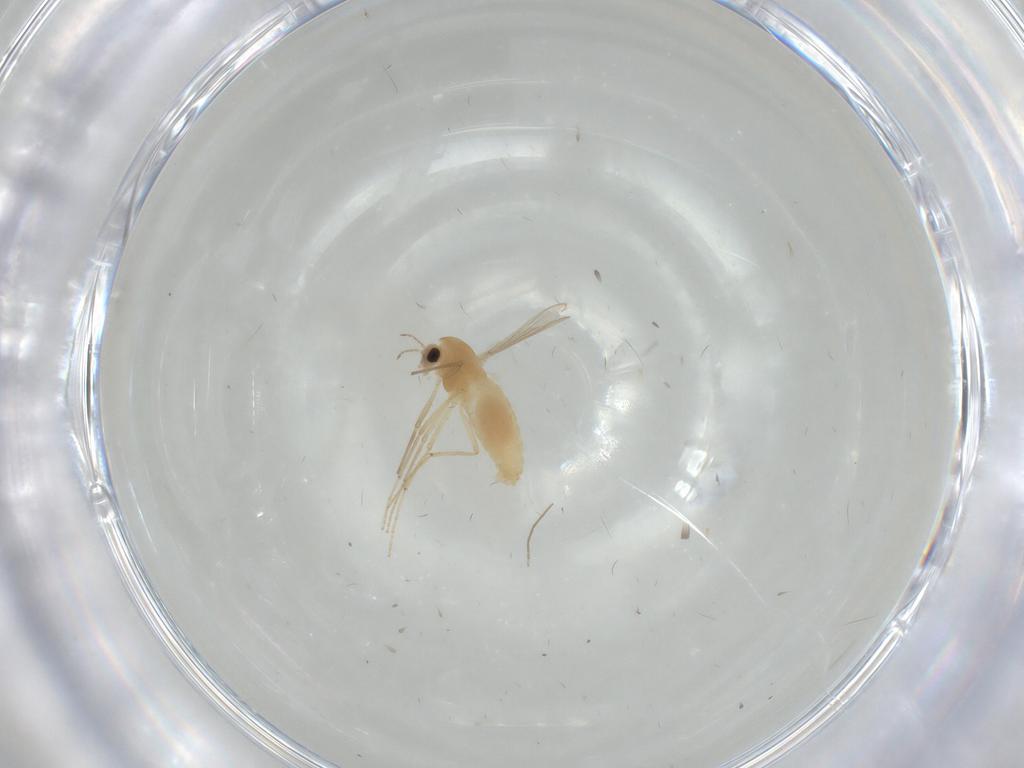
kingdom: Animalia
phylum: Arthropoda
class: Insecta
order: Diptera
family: Chironomidae
